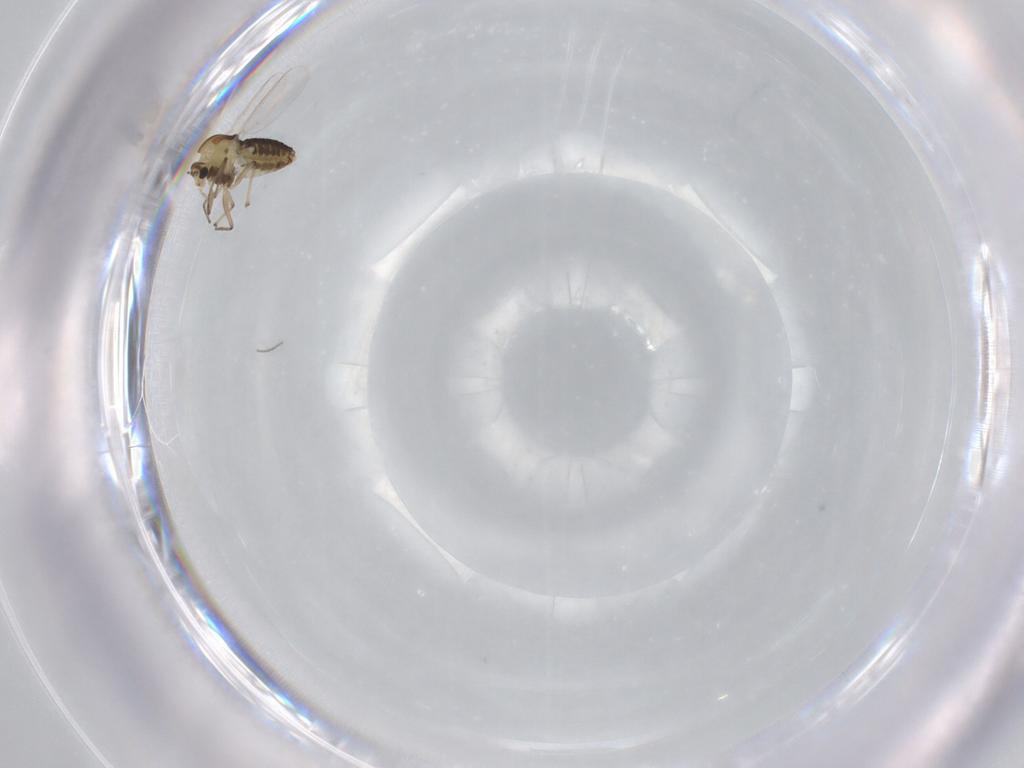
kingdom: Animalia
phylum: Arthropoda
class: Insecta
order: Diptera
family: Chironomidae
